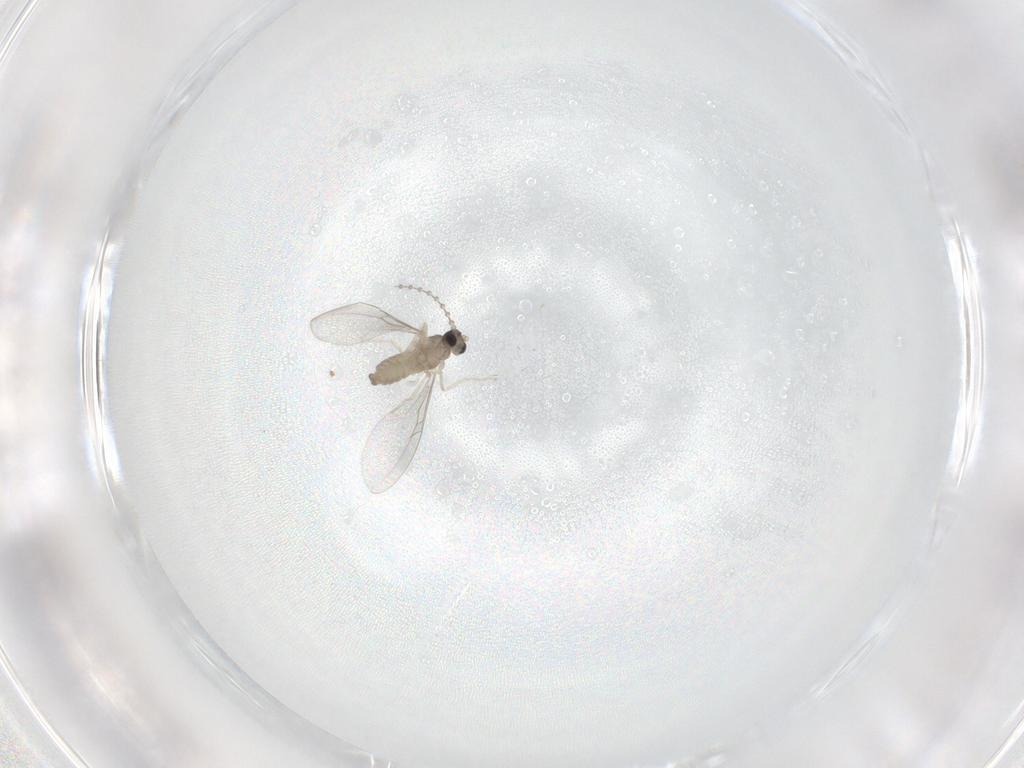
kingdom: Animalia
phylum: Arthropoda
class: Insecta
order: Diptera
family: Cecidomyiidae
